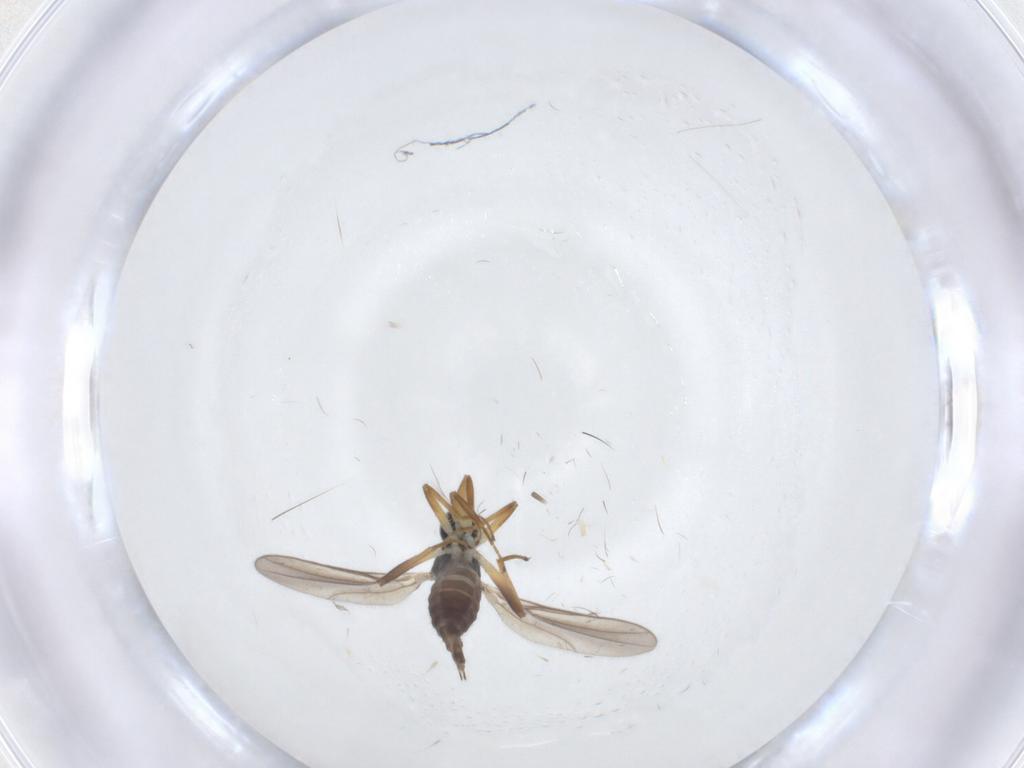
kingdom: Animalia
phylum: Arthropoda
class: Insecta
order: Diptera
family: Hybotidae
